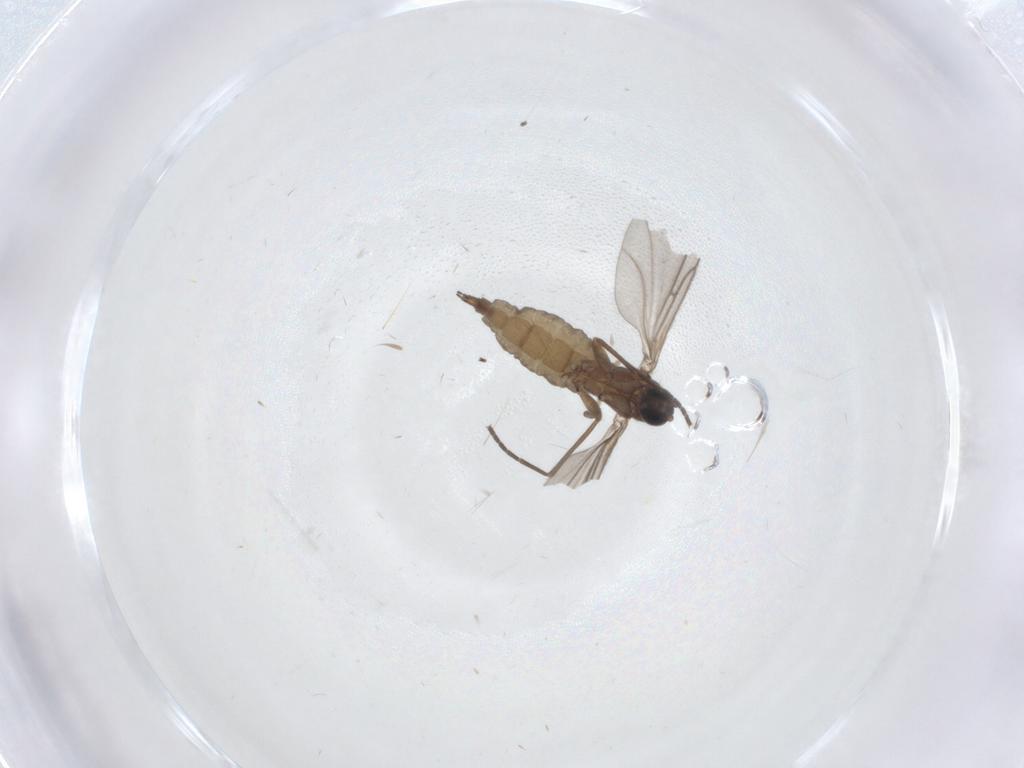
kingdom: Animalia
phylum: Arthropoda
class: Insecta
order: Diptera
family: Sciaridae
